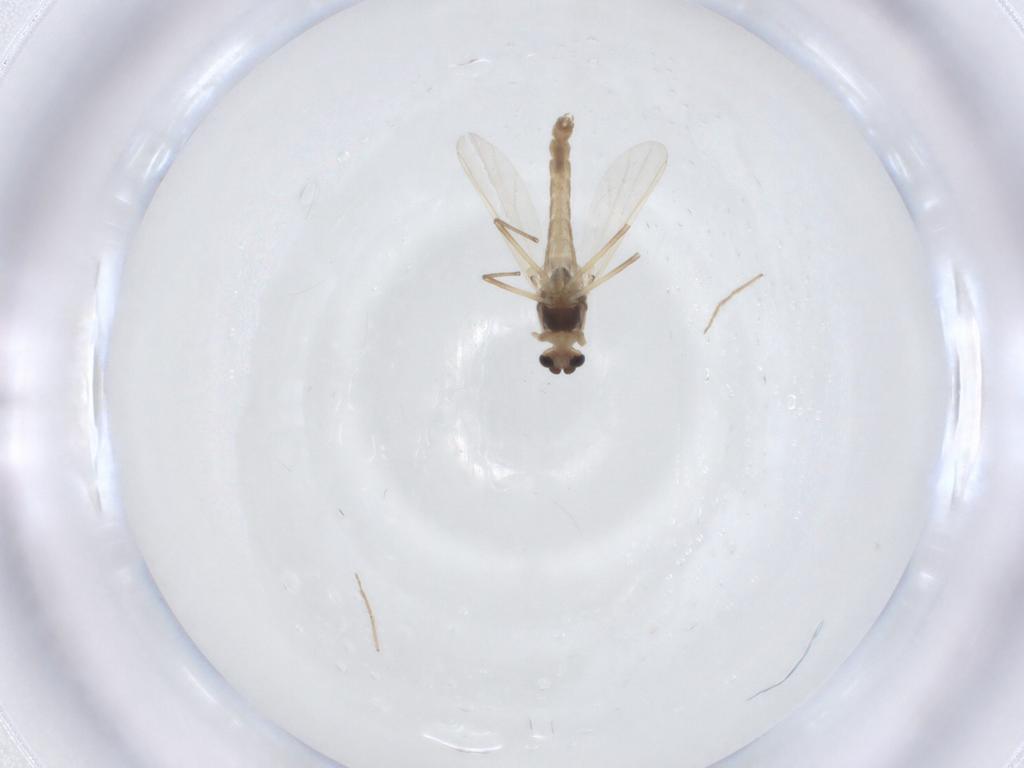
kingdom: Animalia
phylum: Arthropoda
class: Insecta
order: Diptera
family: Chironomidae
